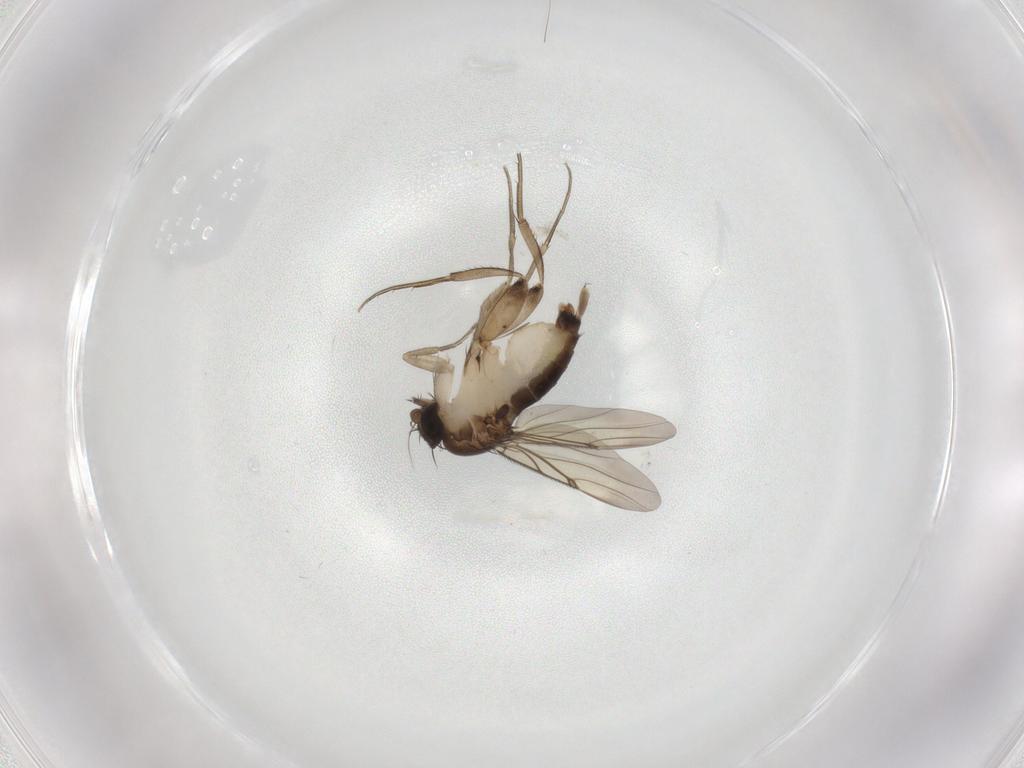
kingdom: Animalia
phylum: Arthropoda
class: Insecta
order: Diptera
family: Phoridae
